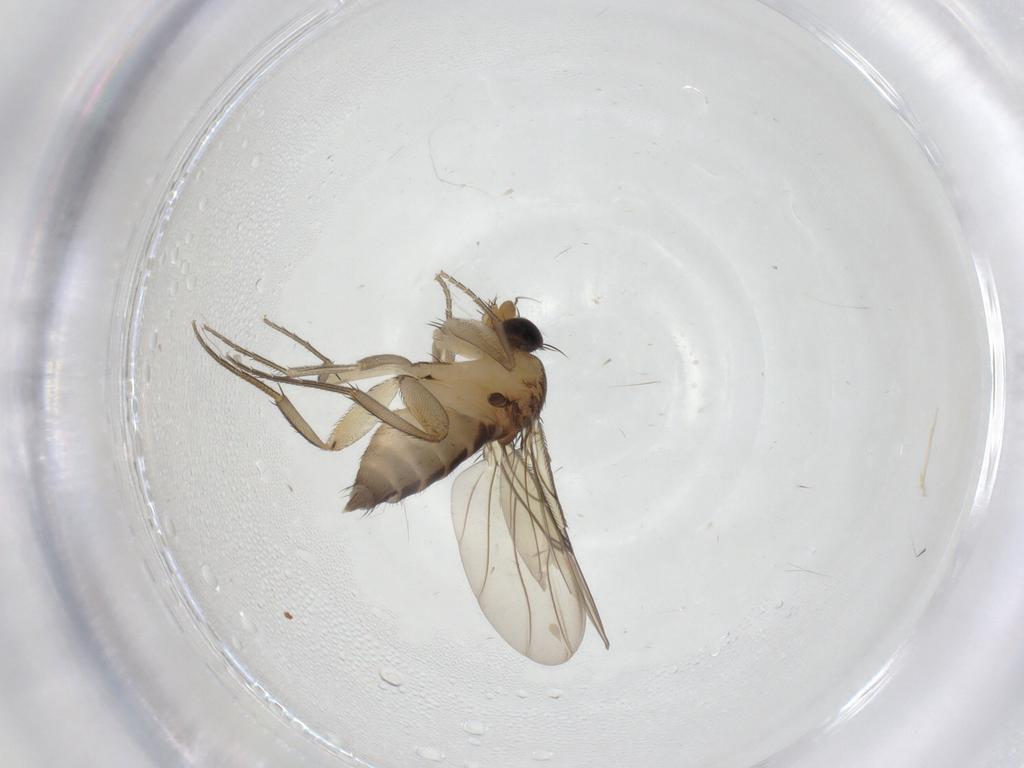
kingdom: Animalia
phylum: Arthropoda
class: Insecta
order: Diptera
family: Phoridae
